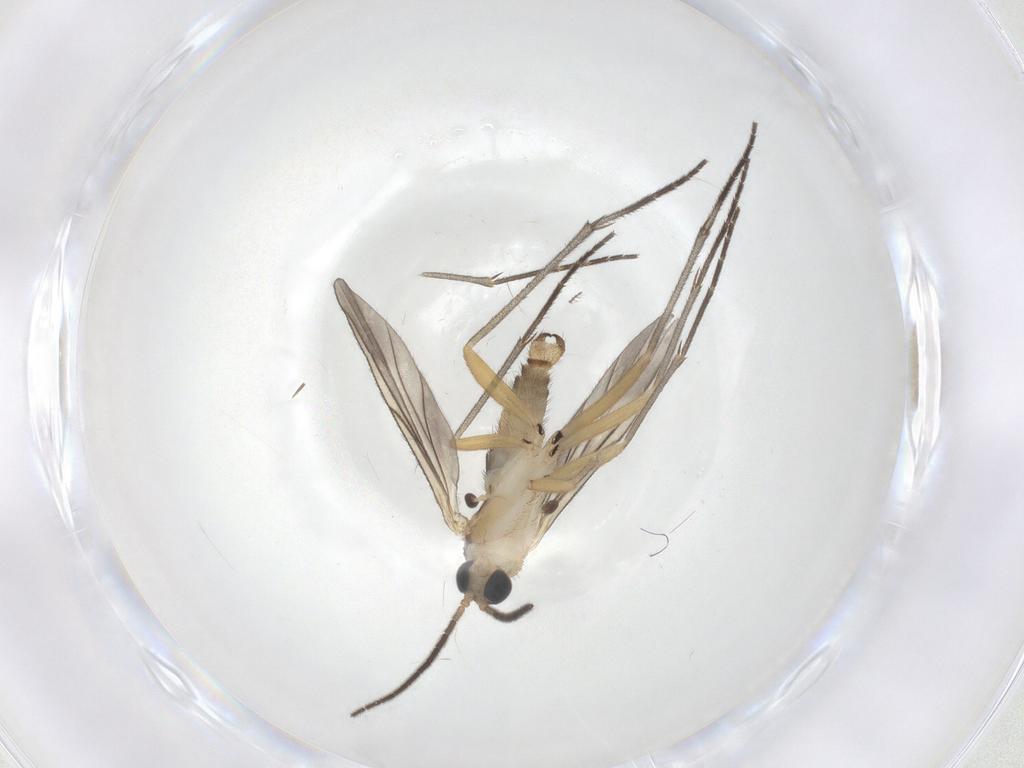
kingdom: Animalia
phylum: Arthropoda
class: Insecta
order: Diptera
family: Sciaridae
